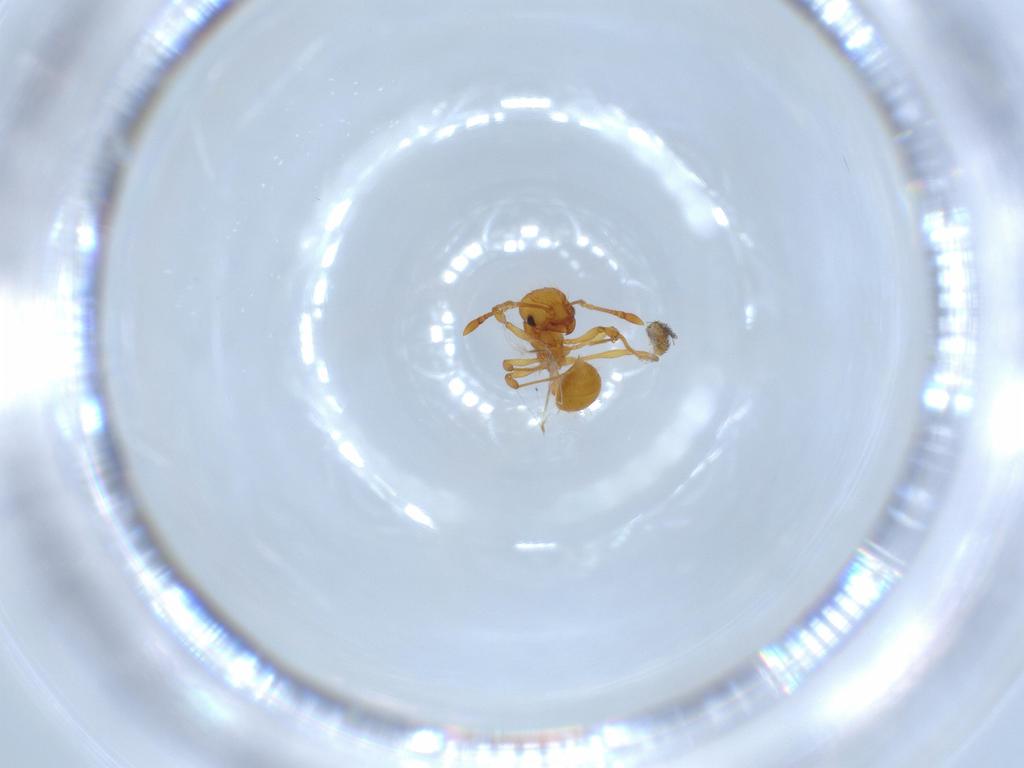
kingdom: Animalia
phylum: Arthropoda
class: Insecta
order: Hymenoptera
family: Formicidae
